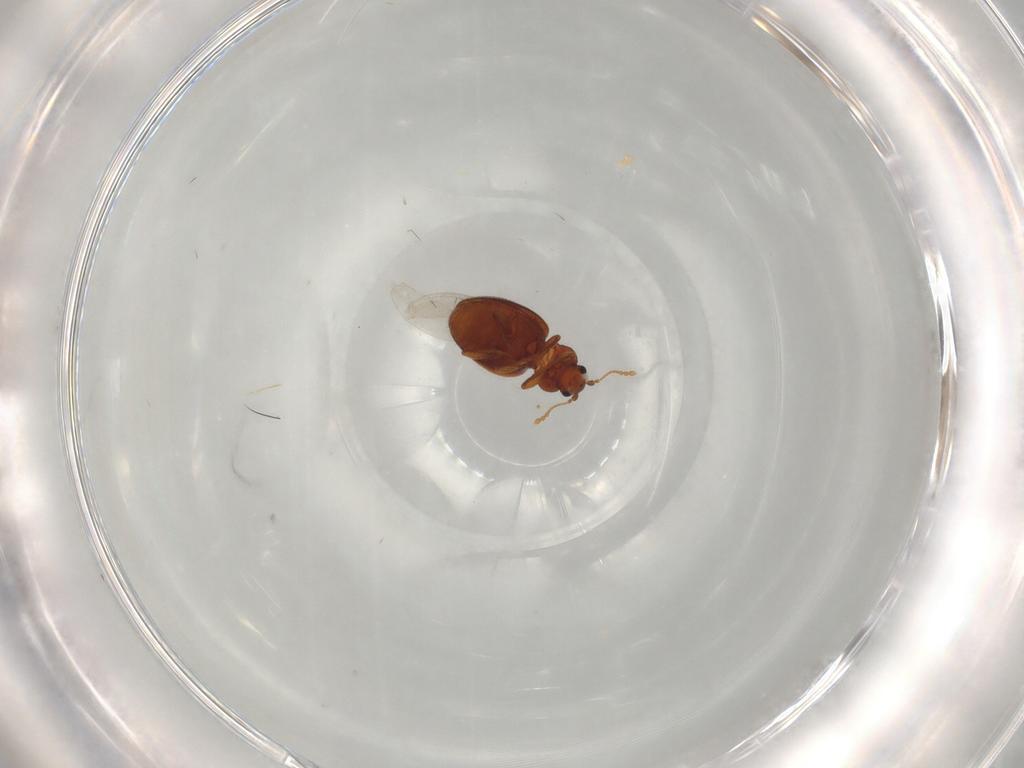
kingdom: Animalia
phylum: Arthropoda
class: Insecta
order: Coleoptera
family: Latridiidae
